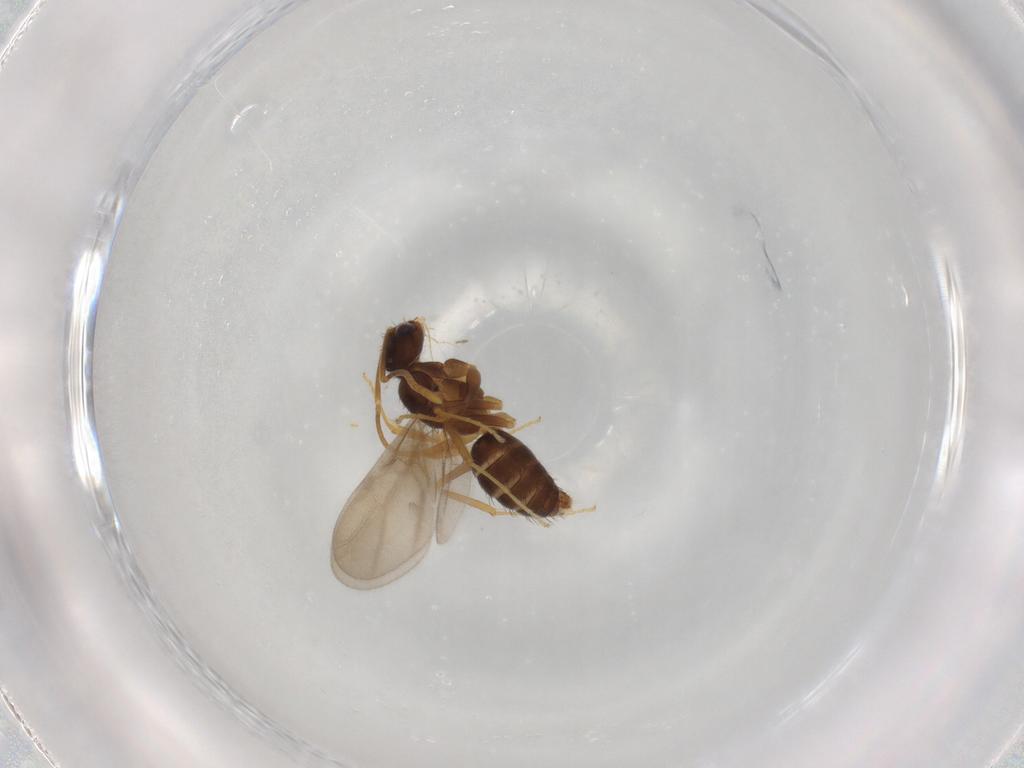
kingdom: Animalia
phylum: Arthropoda
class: Insecta
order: Hymenoptera
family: Formicidae
